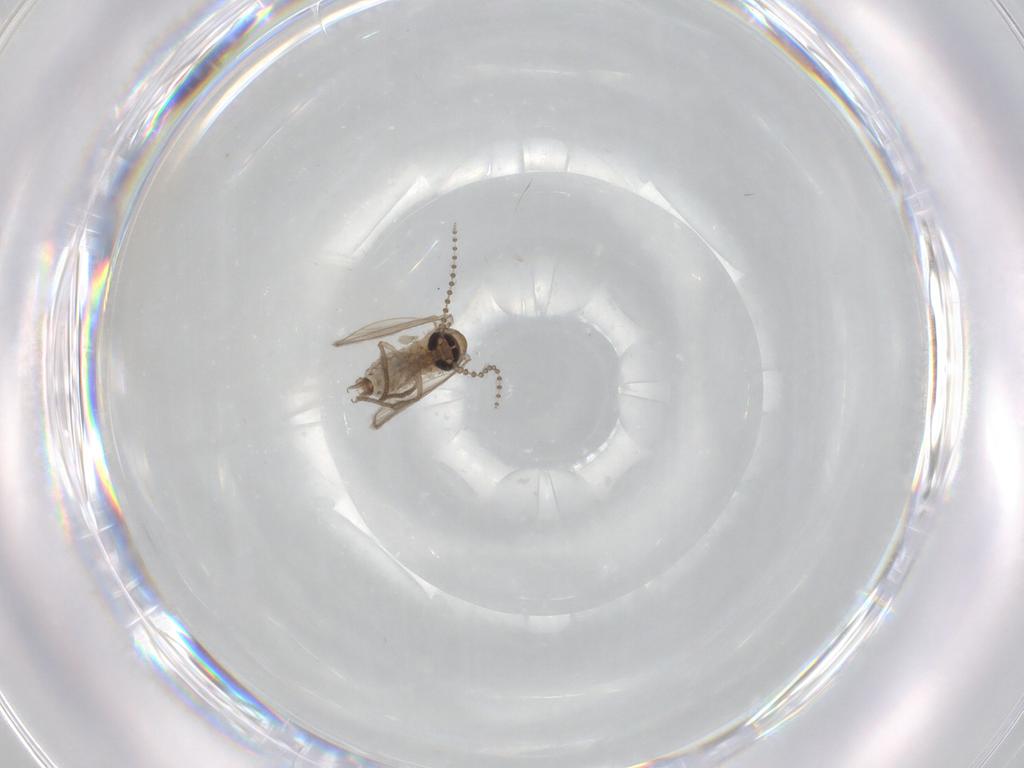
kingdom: Animalia
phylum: Arthropoda
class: Insecta
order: Diptera
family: Psychodidae
